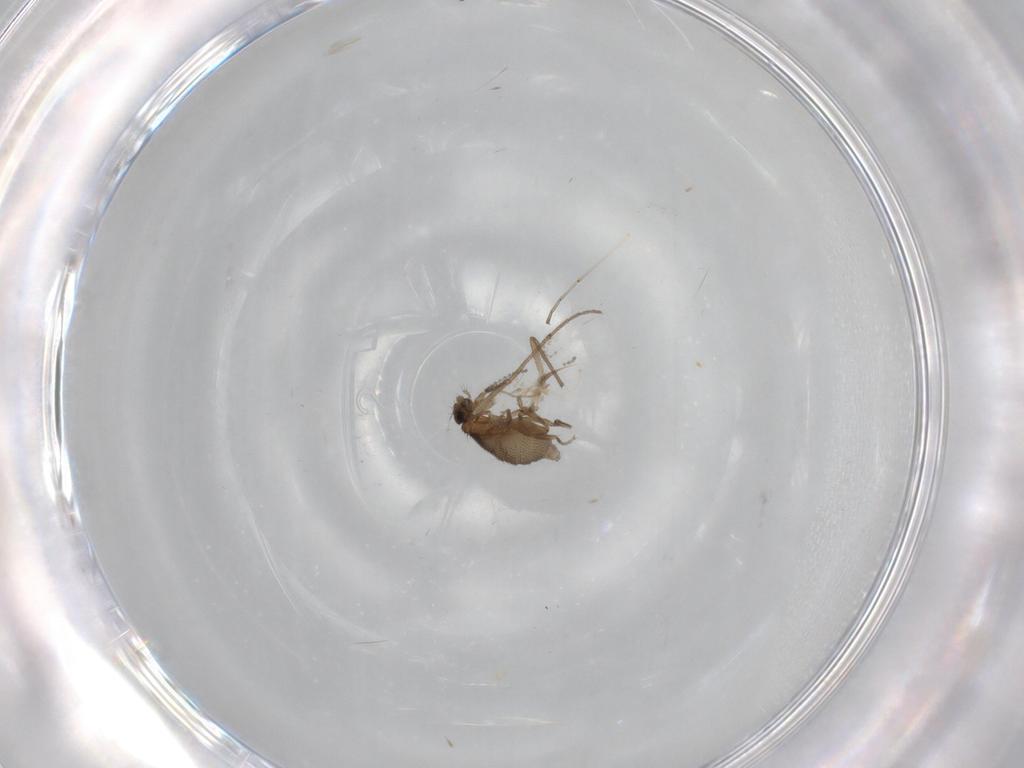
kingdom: Animalia
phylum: Arthropoda
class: Insecta
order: Diptera
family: Phoridae
